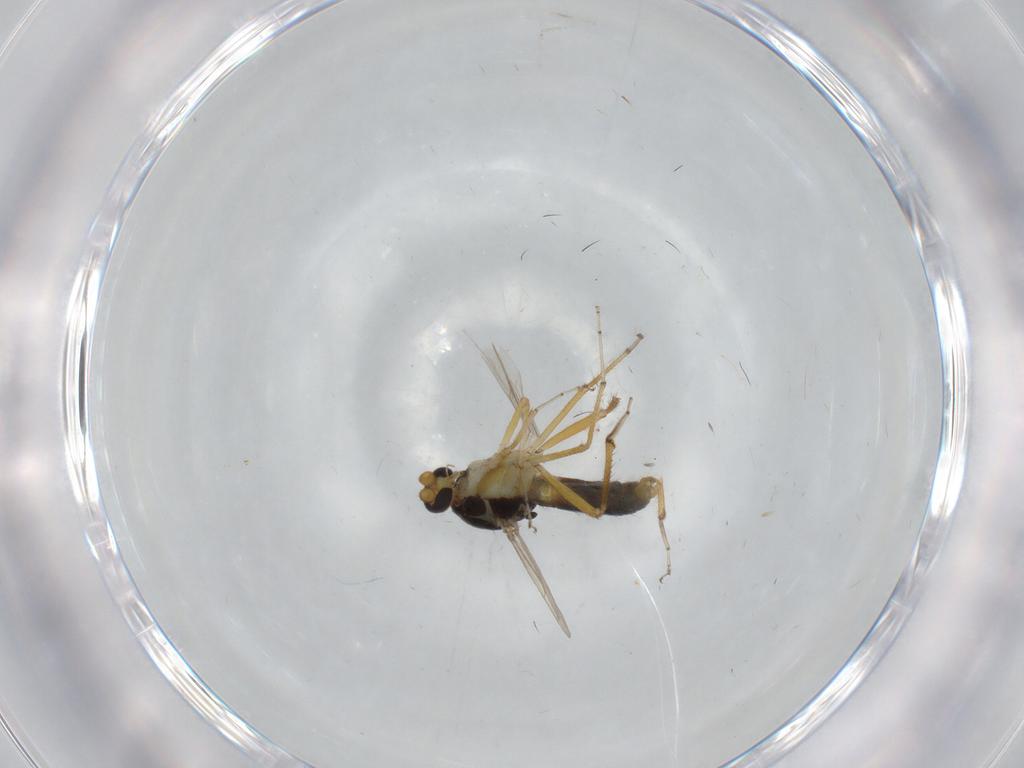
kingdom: Animalia
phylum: Arthropoda
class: Insecta
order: Diptera
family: Ceratopogonidae
